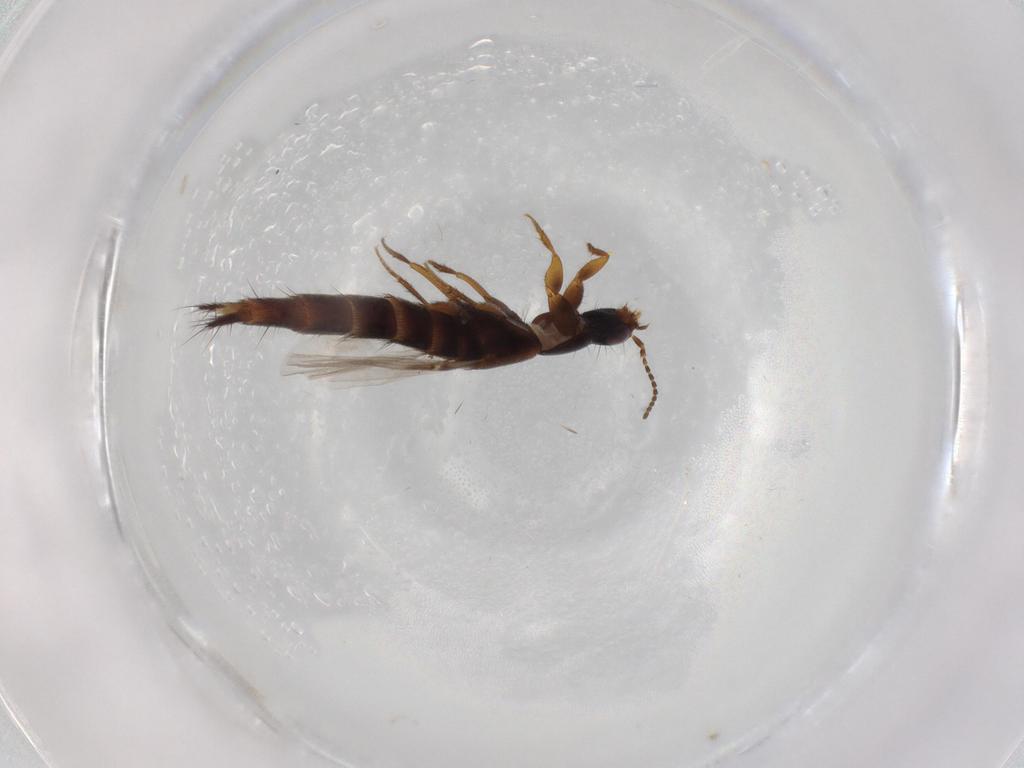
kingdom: Animalia
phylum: Arthropoda
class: Insecta
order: Coleoptera
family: Staphylinidae
